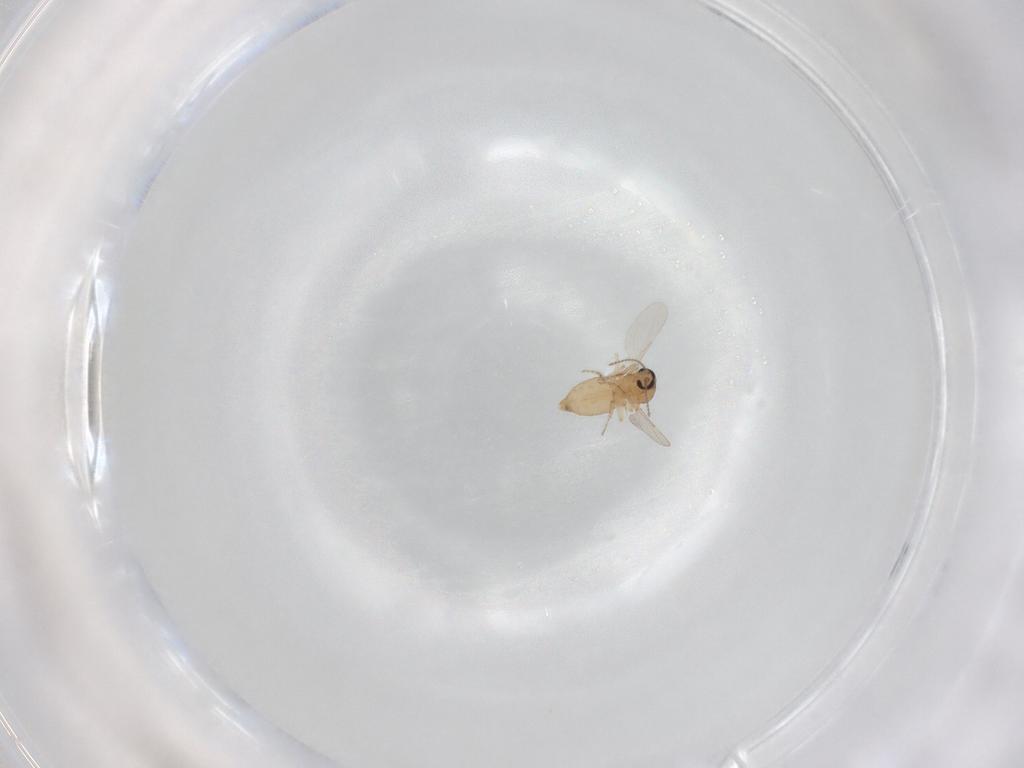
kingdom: Animalia
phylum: Arthropoda
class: Insecta
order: Diptera
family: Ceratopogonidae
